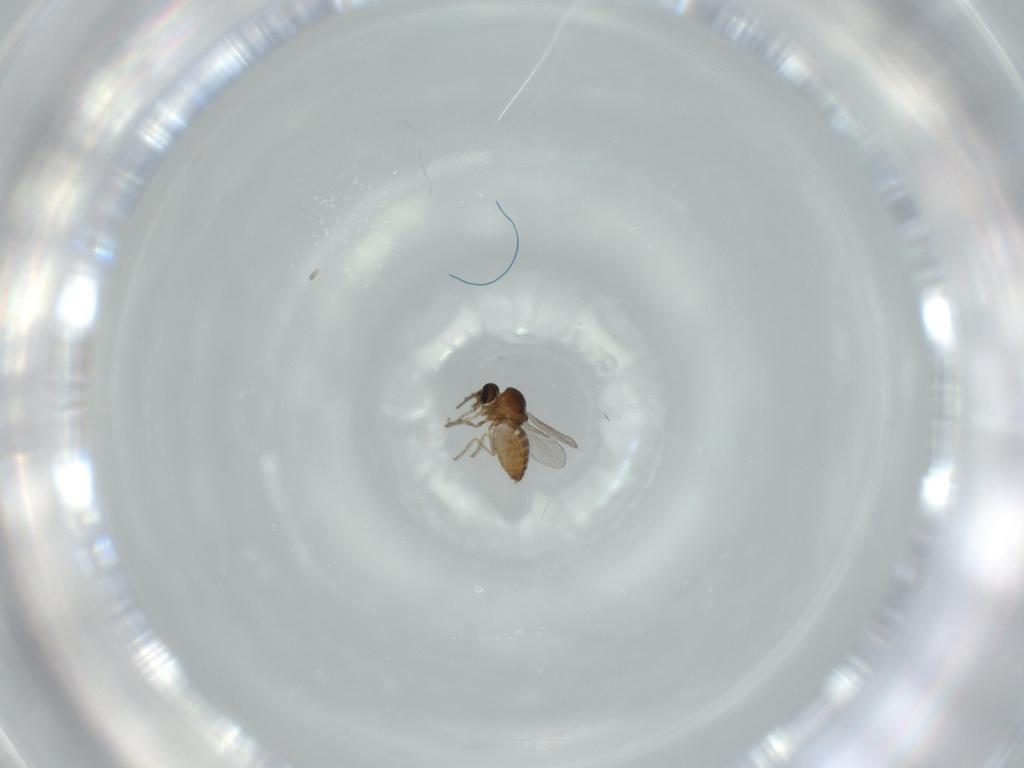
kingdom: Animalia
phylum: Arthropoda
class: Insecta
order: Diptera
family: Ceratopogonidae
